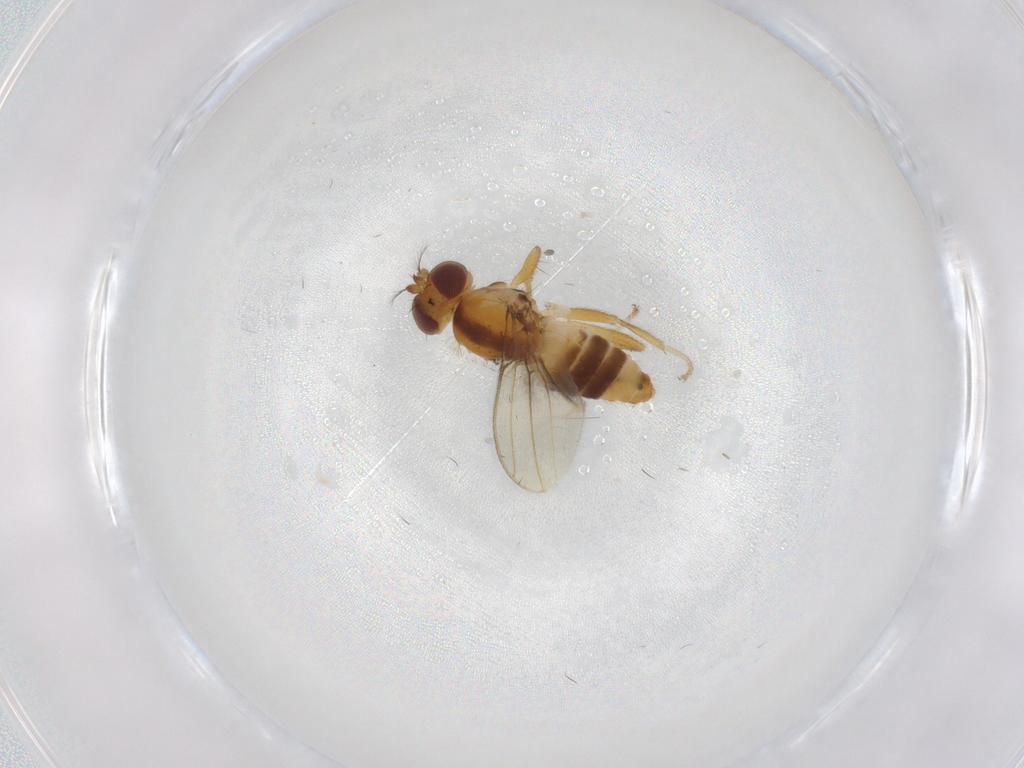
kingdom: Animalia
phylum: Arthropoda
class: Insecta
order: Diptera
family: Periscelididae
